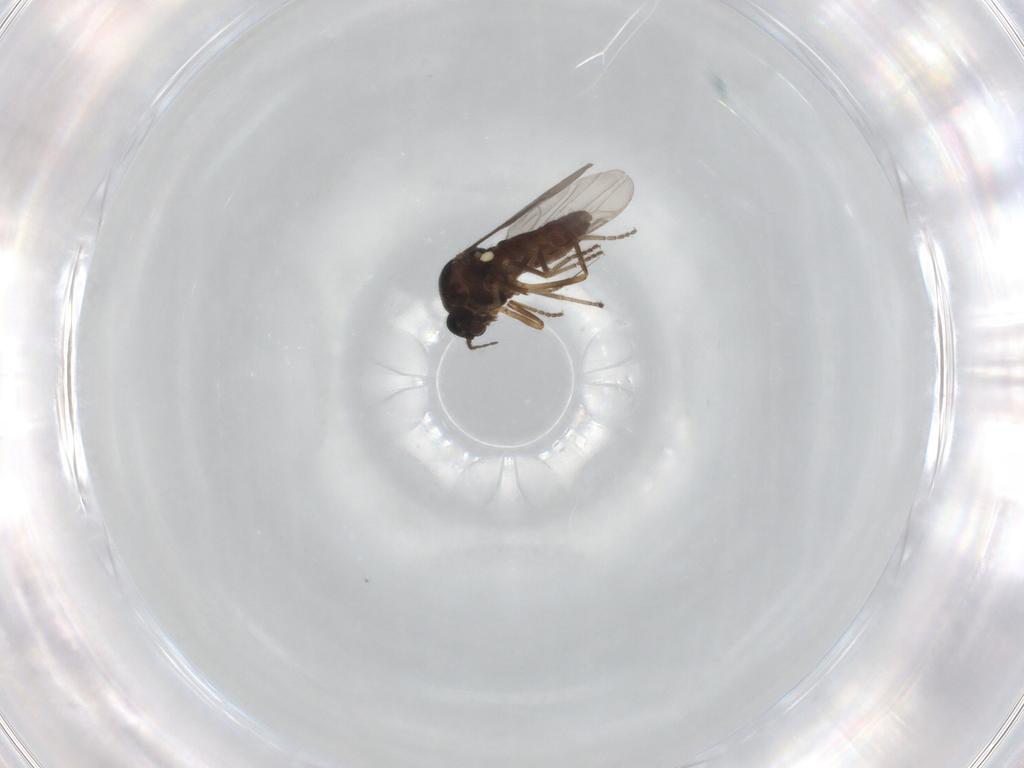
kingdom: Animalia
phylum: Arthropoda
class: Insecta
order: Diptera
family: Ceratopogonidae
